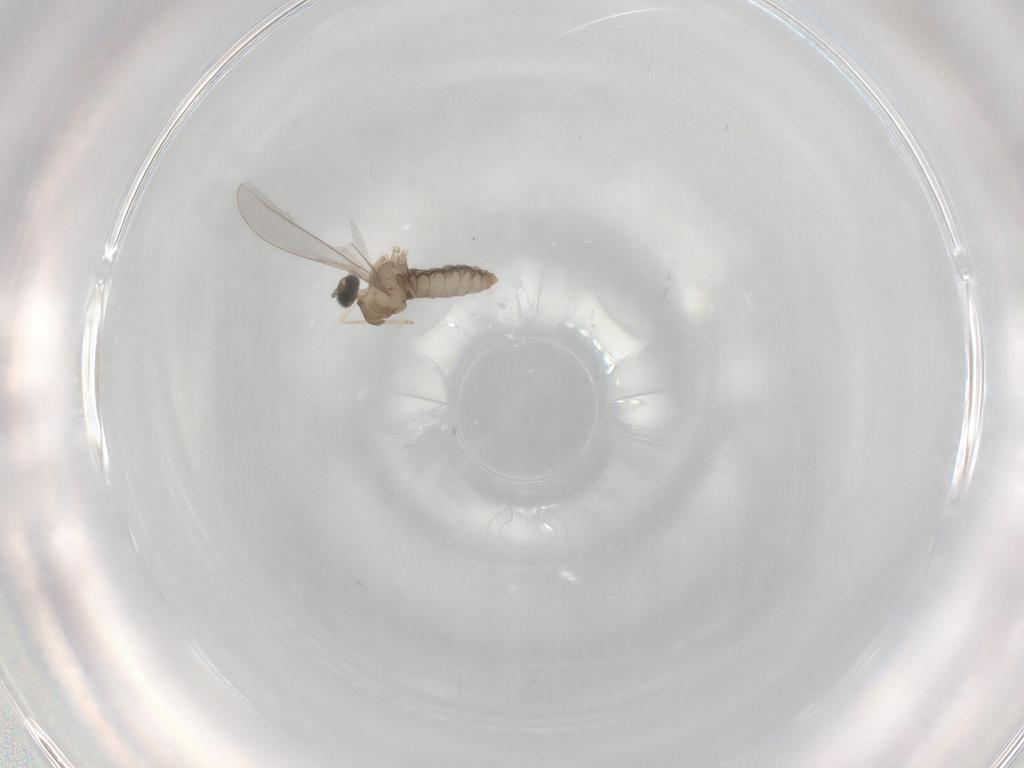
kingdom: Animalia
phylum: Arthropoda
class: Insecta
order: Diptera
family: Cecidomyiidae
